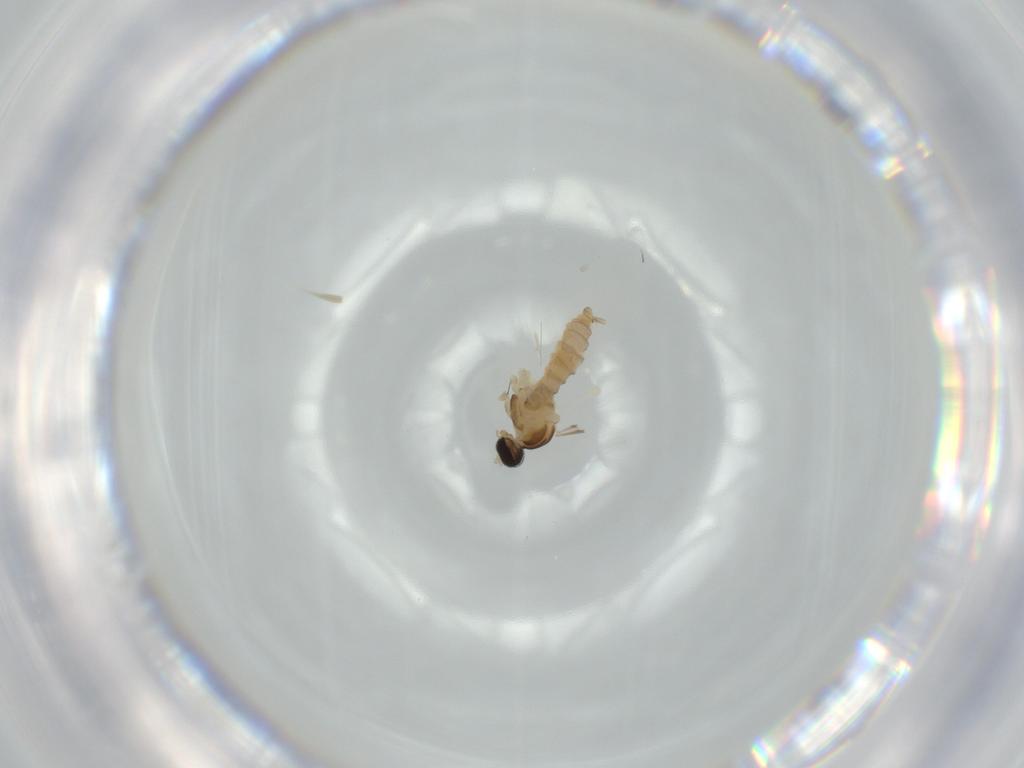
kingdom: Animalia
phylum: Arthropoda
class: Insecta
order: Diptera
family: Cecidomyiidae
